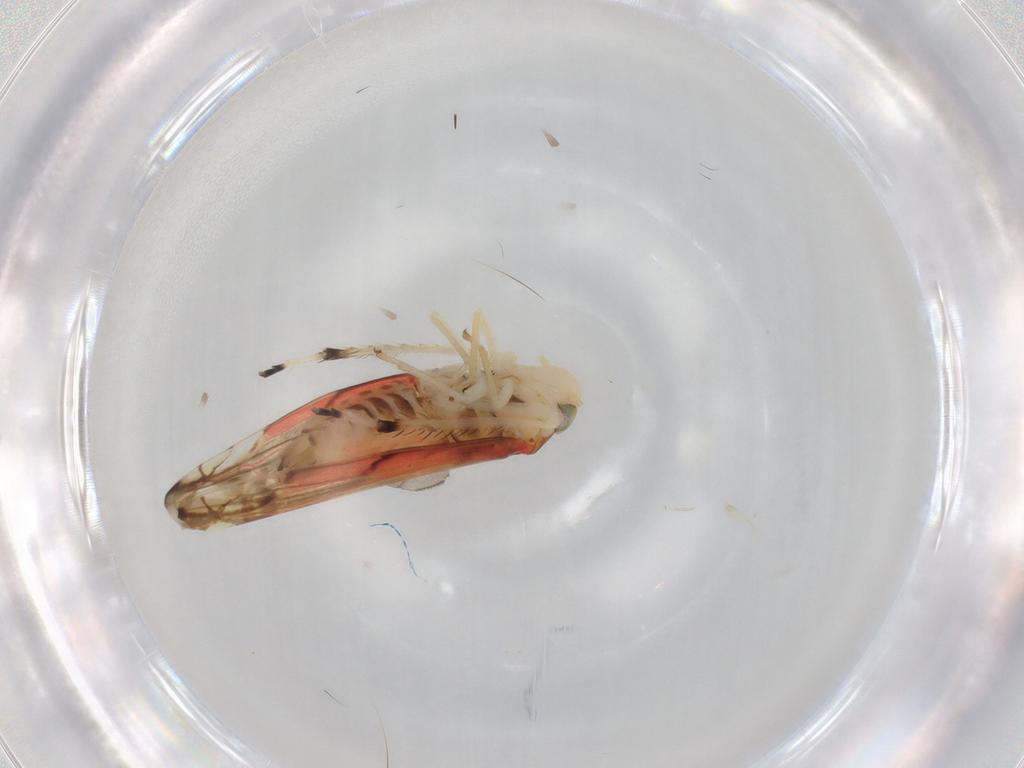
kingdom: Animalia
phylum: Arthropoda
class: Insecta
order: Hemiptera
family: Cicadellidae
